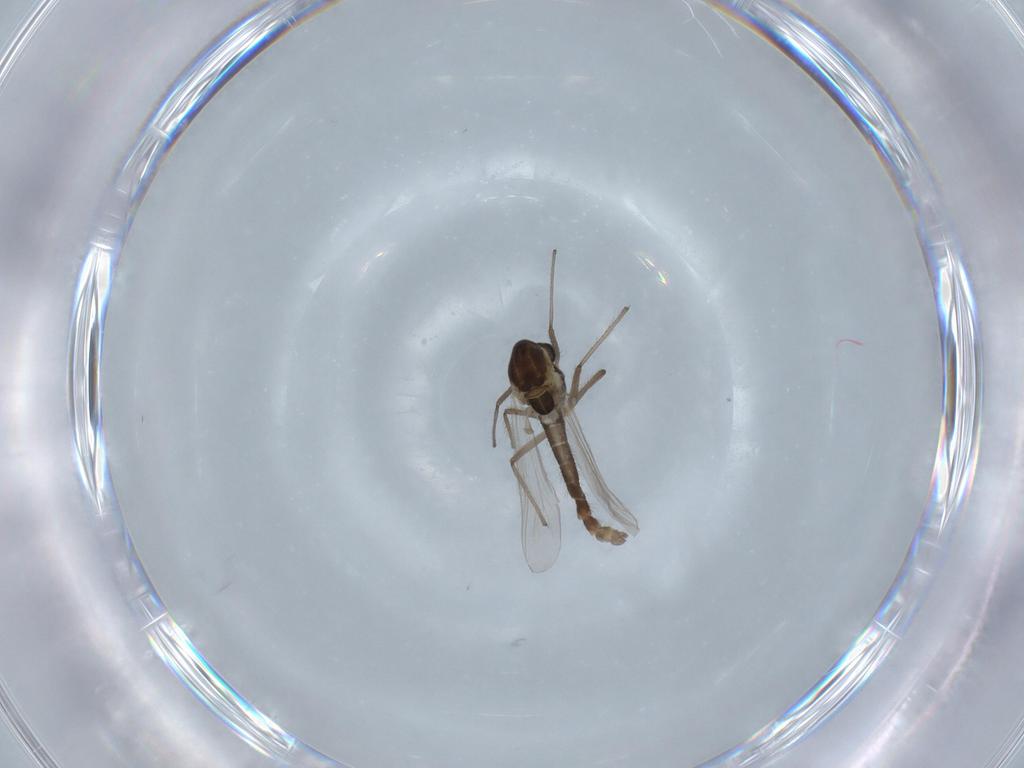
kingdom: Animalia
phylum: Arthropoda
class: Insecta
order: Diptera
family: Chironomidae
